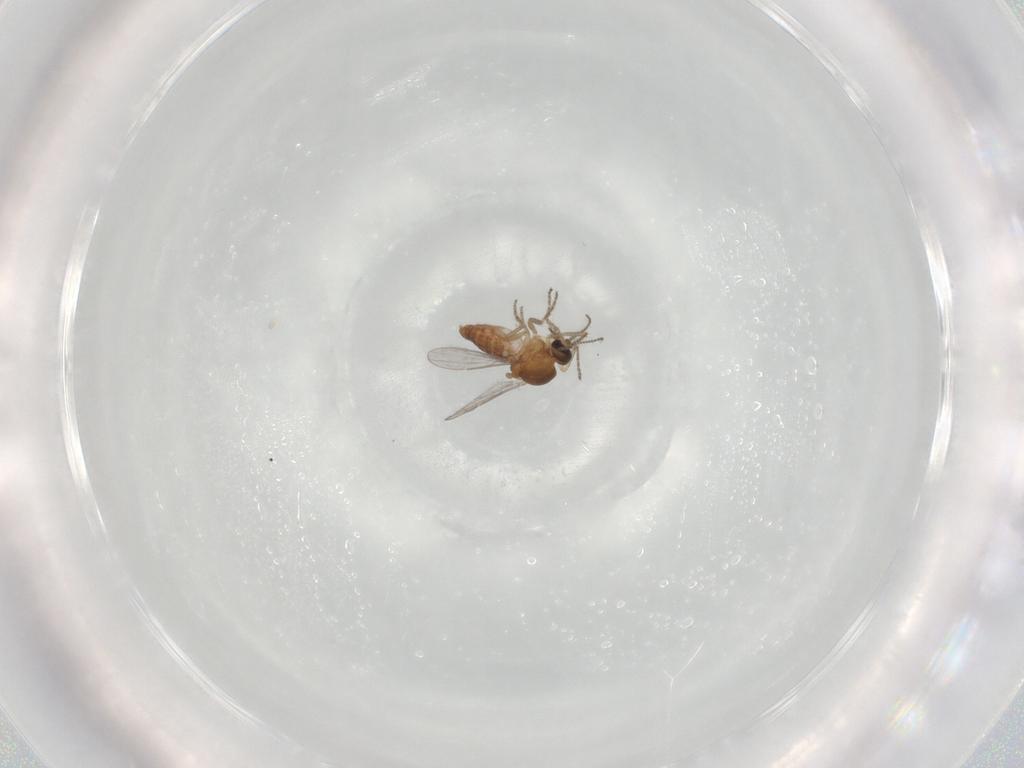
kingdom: Animalia
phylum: Arthropoda
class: Insecta
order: Diptera
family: Ceratopogonidae
